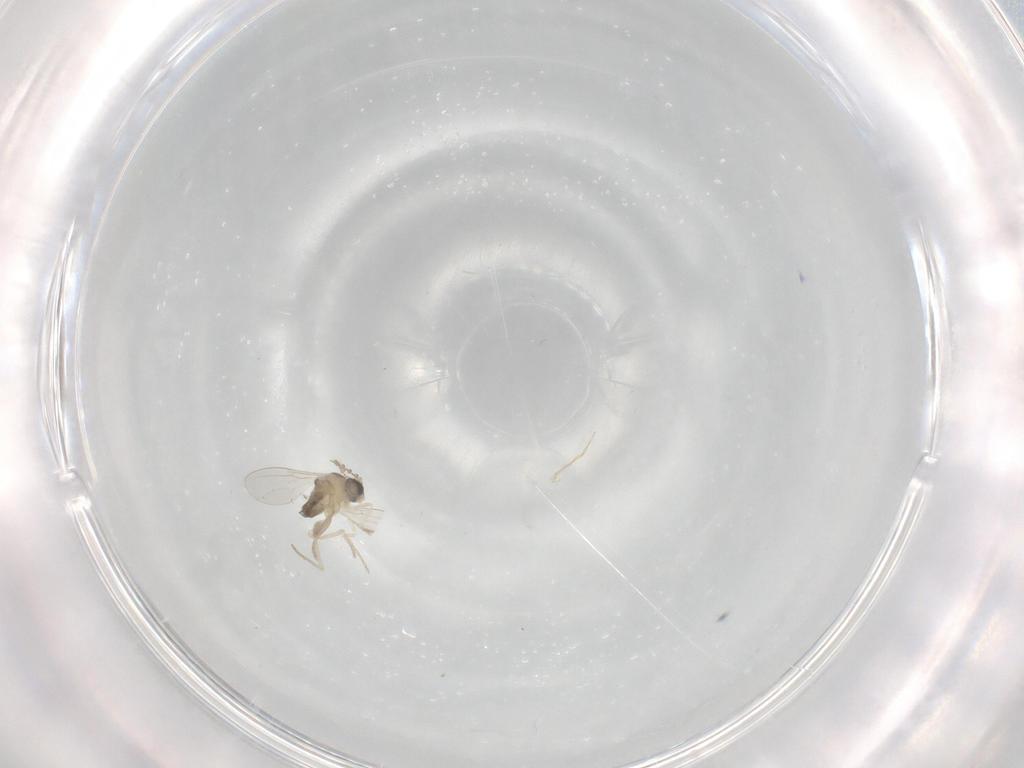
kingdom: Animalia
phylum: Arthropoda
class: Insecta
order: Diptera
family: Cecidomyiidae
